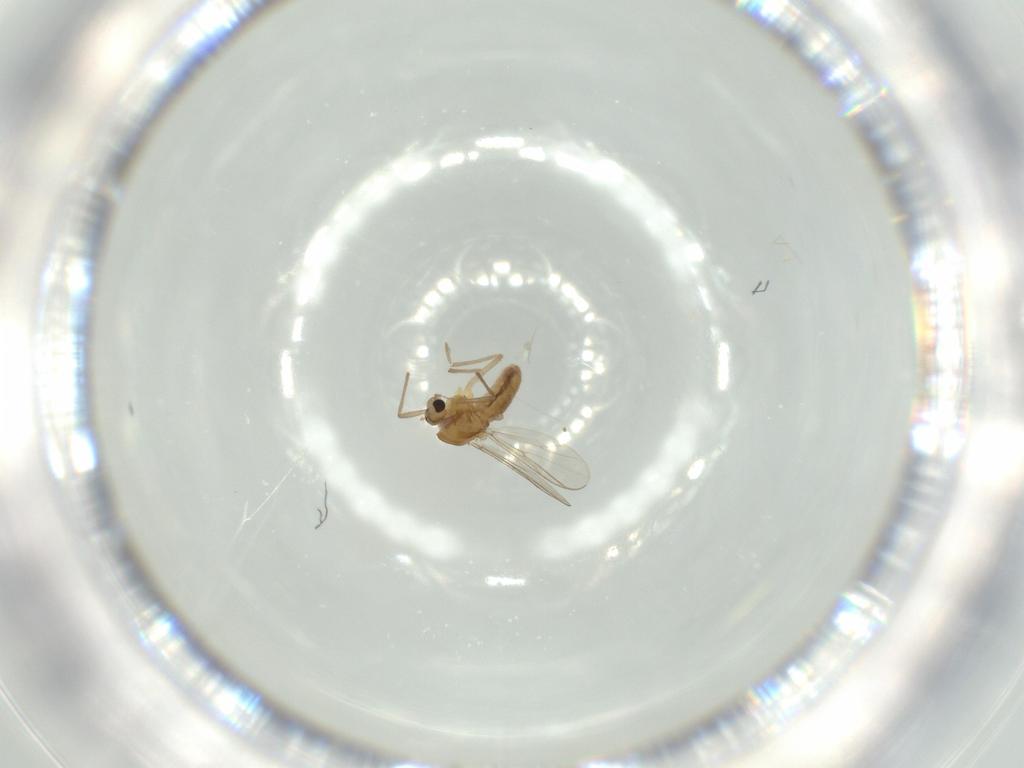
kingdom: Animalia
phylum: Arthropoda
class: Insecta
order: Diptera
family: Chironomidae
